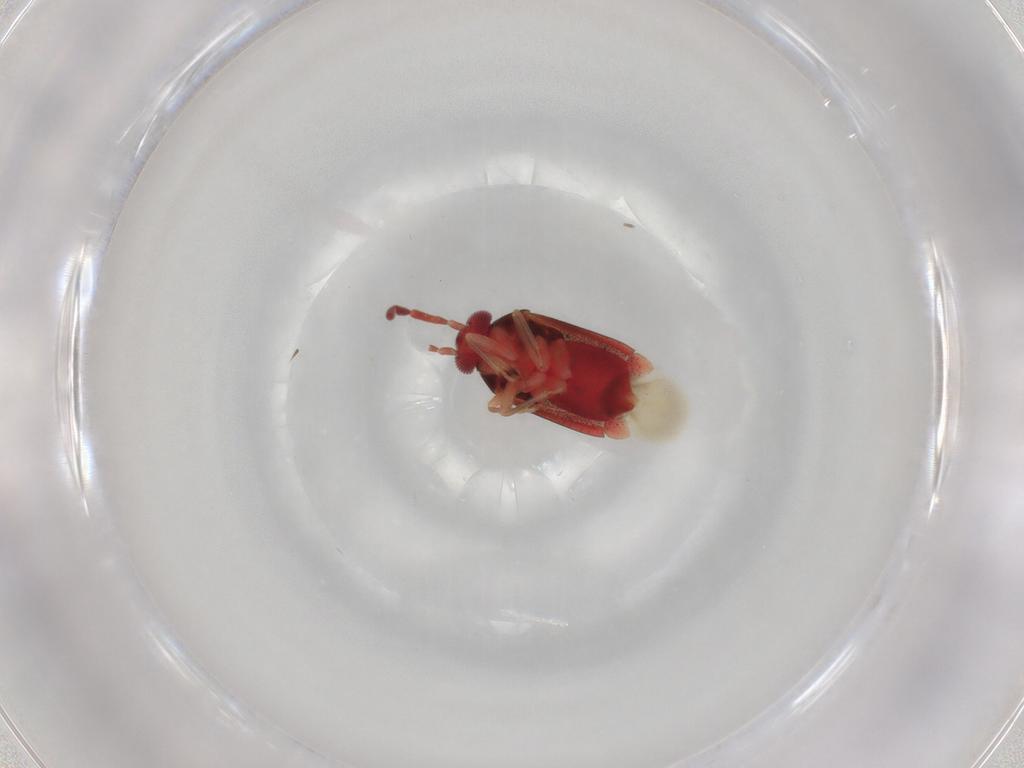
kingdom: Animalia
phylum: Arthropoda
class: Insecta
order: Hemiptera
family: Miridae
